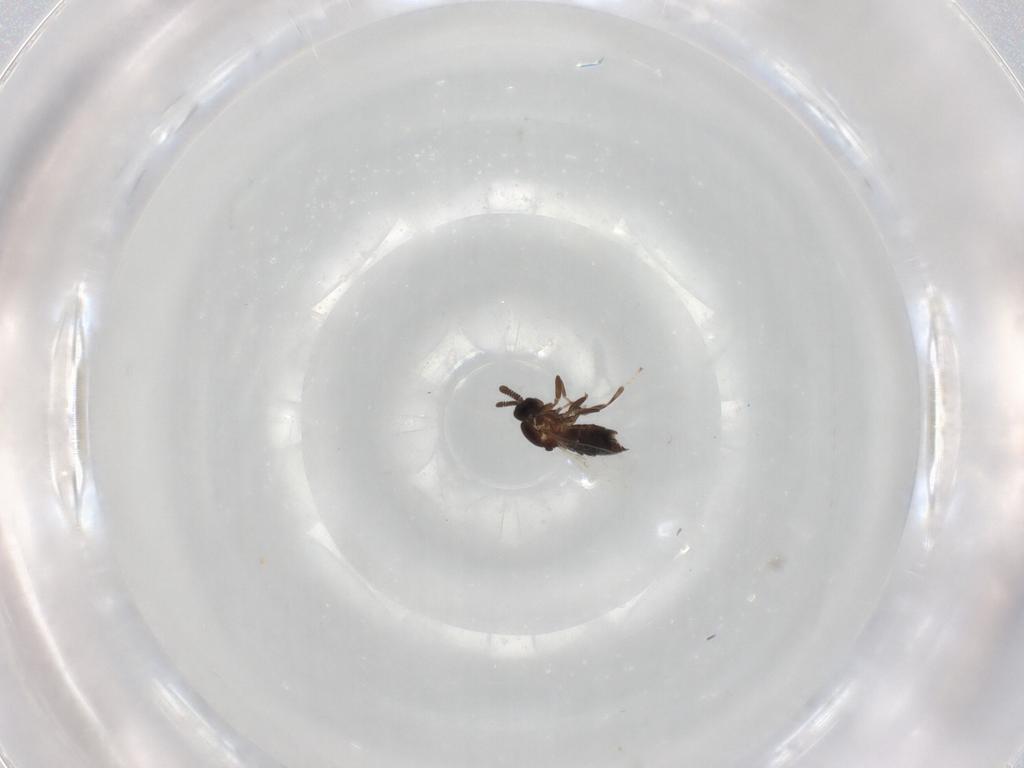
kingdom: Animalia
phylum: Arthropoda
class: Insecta
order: Diptera
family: Scatopsidae
